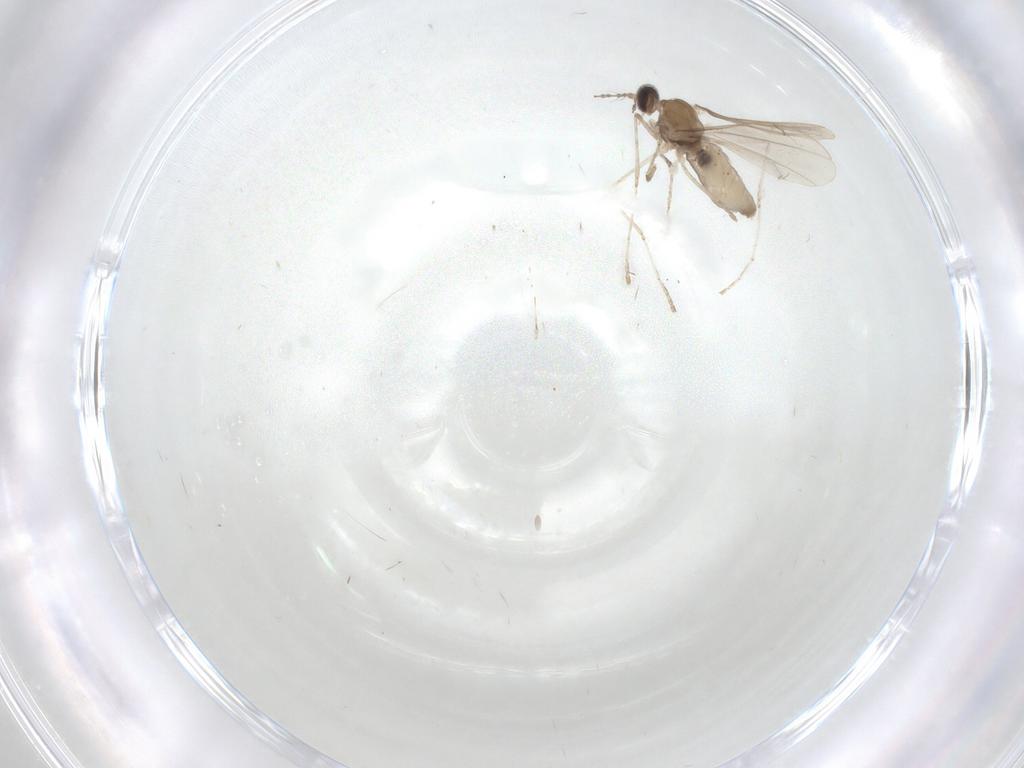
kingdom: Animalia
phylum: Arthropoda
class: Insecta
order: Diptera
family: Cecidomyiidae
